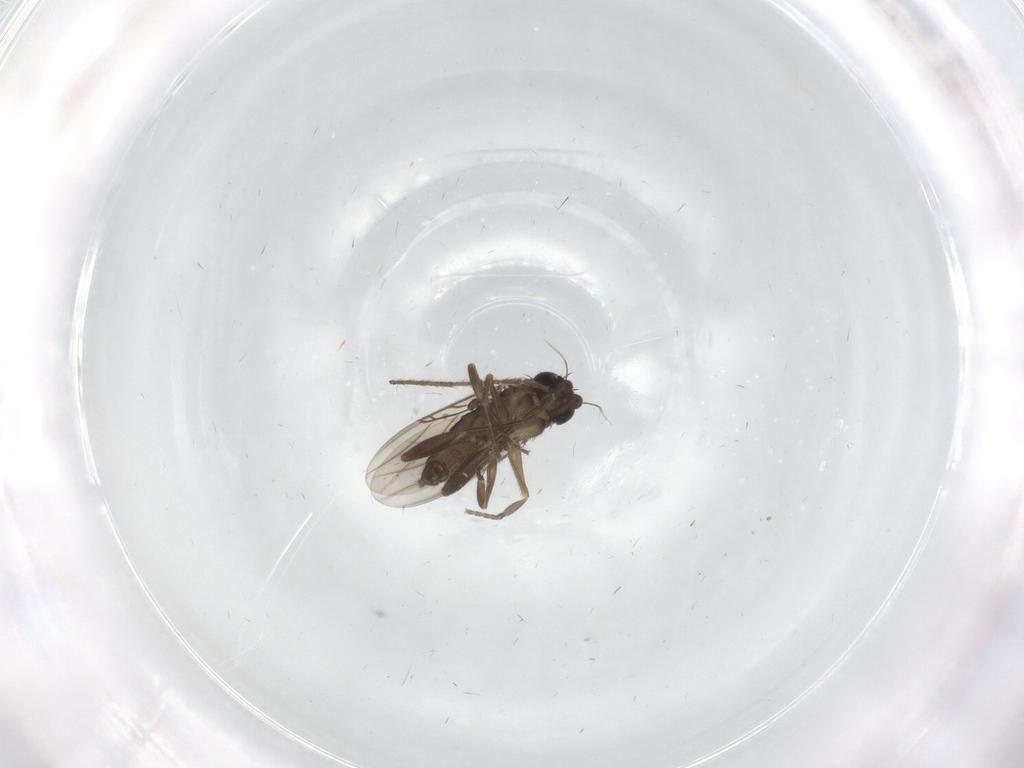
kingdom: Animalia
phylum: Arthropoda
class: Insecta
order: Diptera
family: Phoridae
